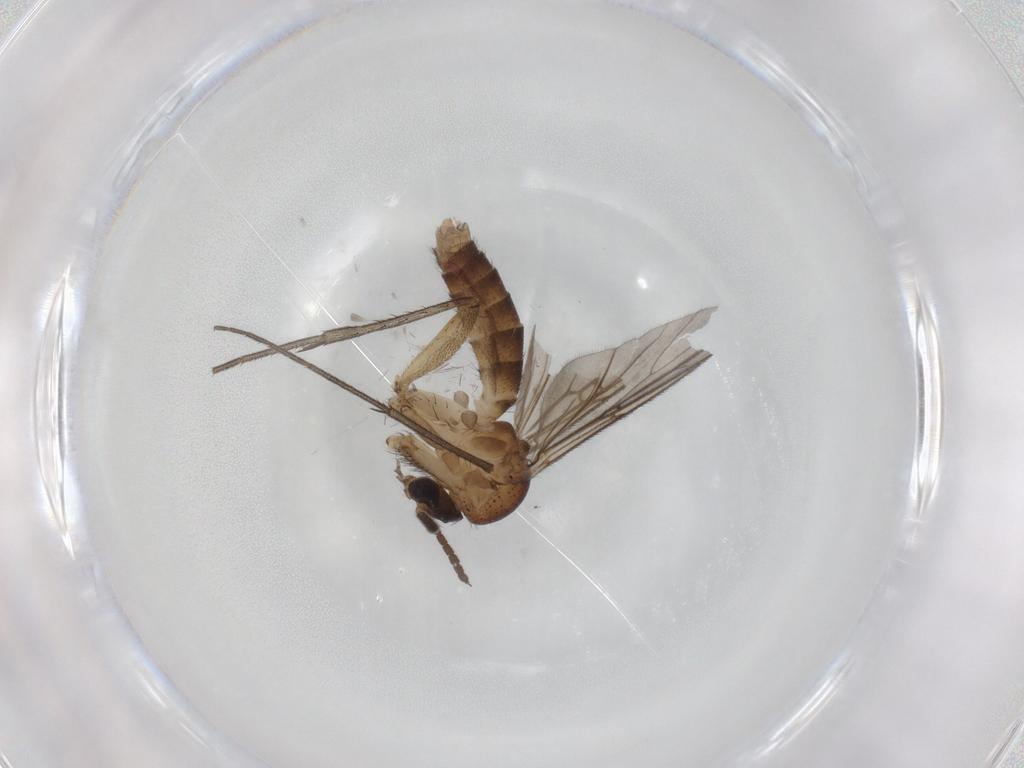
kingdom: Animalia
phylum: Arthropoda
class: Insecta
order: Diptera
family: Cecidomyiidae
